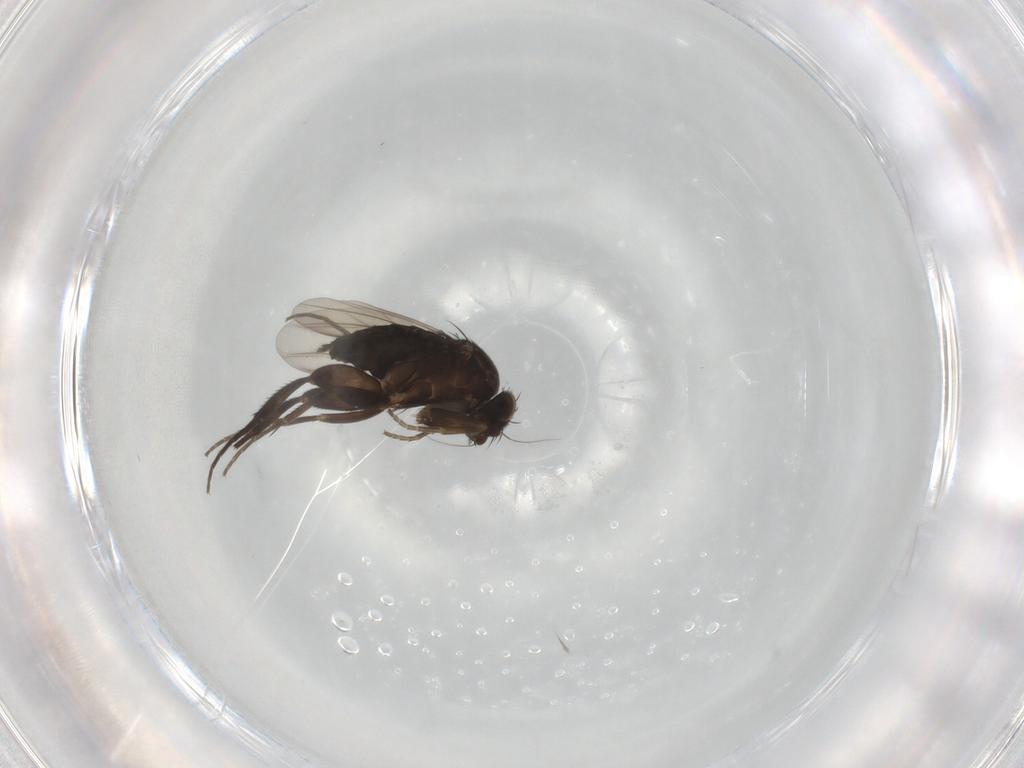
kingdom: Animalia
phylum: Arthropoda
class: Insecta
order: Diptera
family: Phoridae
